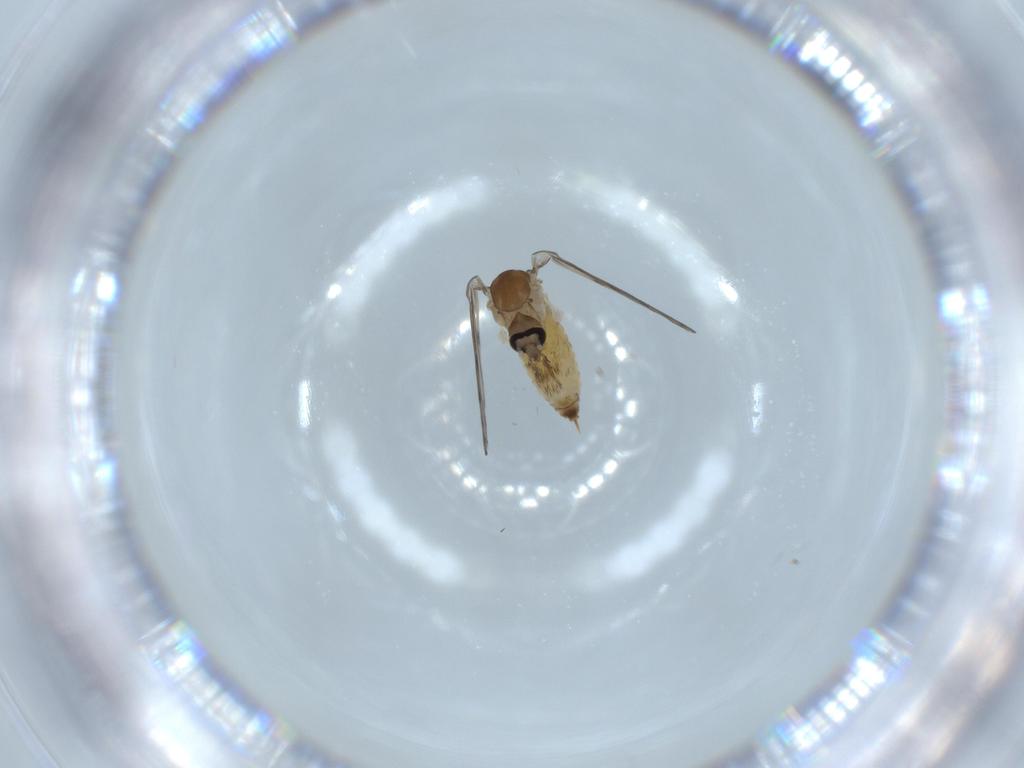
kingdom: Animalia
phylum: Arthropoda
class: Insecta
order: Diptera
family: Psychodidae
